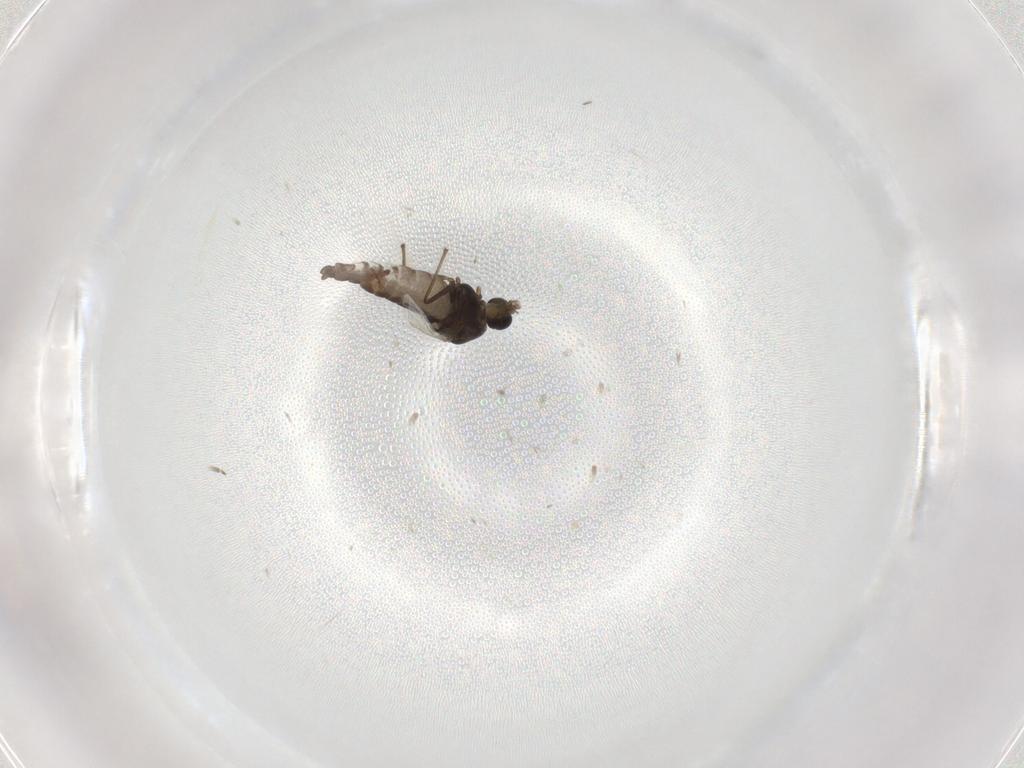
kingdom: Animalia
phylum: Arthropoda
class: Insecta
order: Diptera
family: Chironomidae
